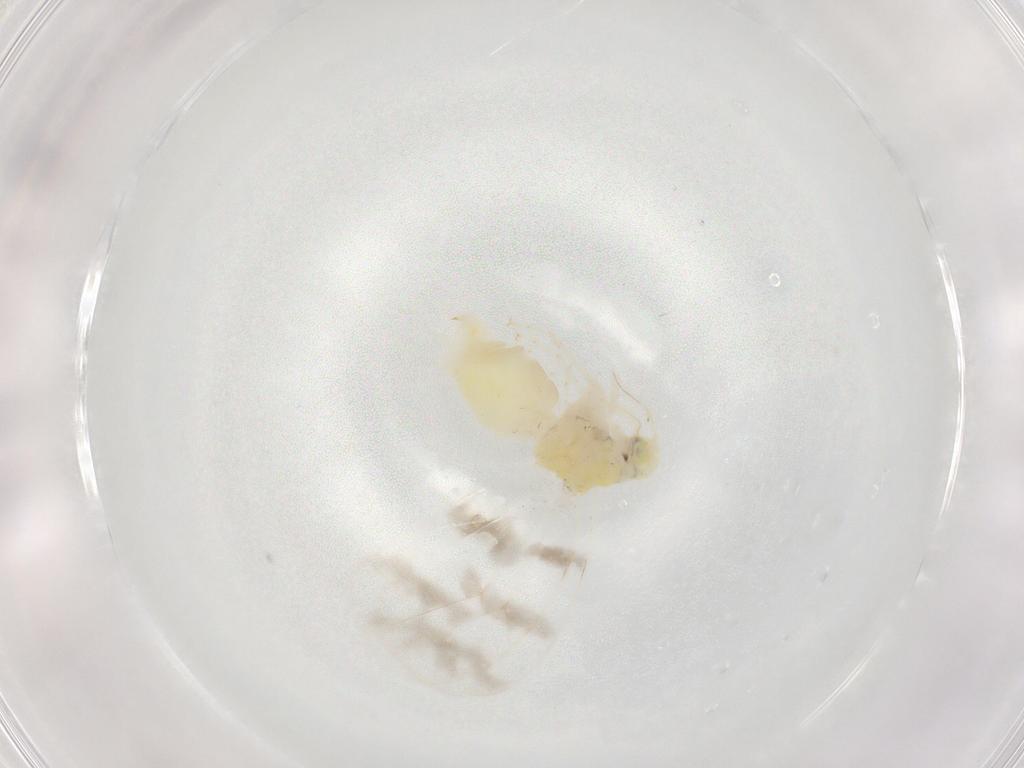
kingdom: Animalia
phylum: Arthropoda
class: Insecta
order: Hemiptera
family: Aleyrodidae
